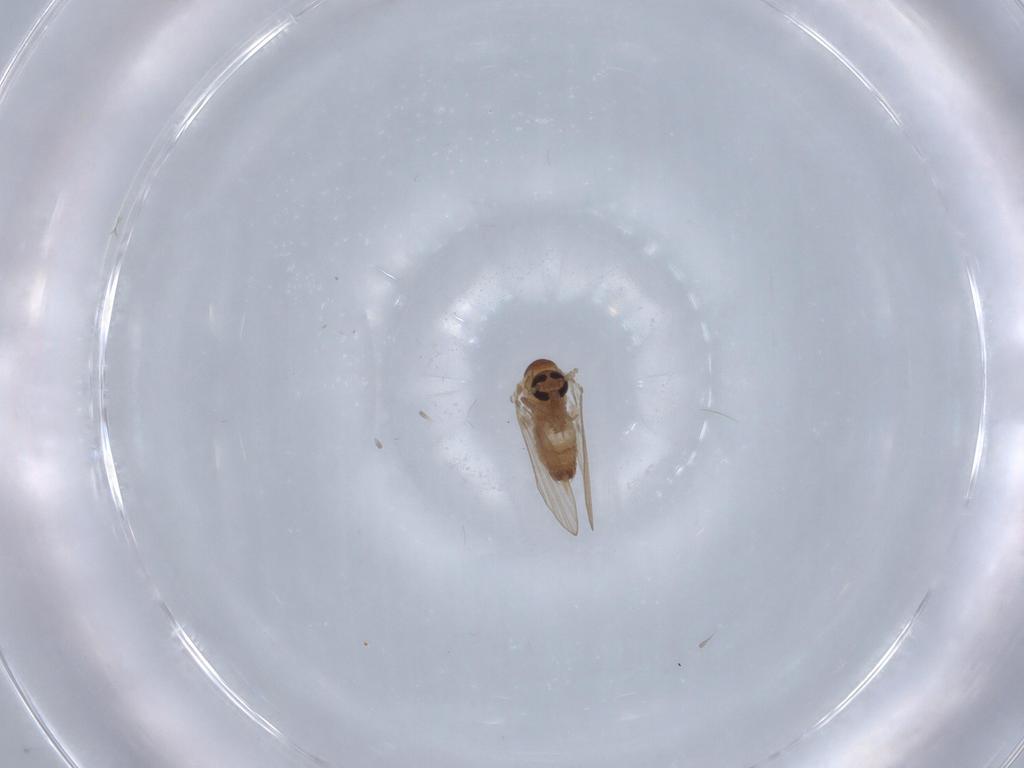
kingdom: Animalia
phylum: Arthropoda
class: Insecta
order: Diptera
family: Psychodidae
